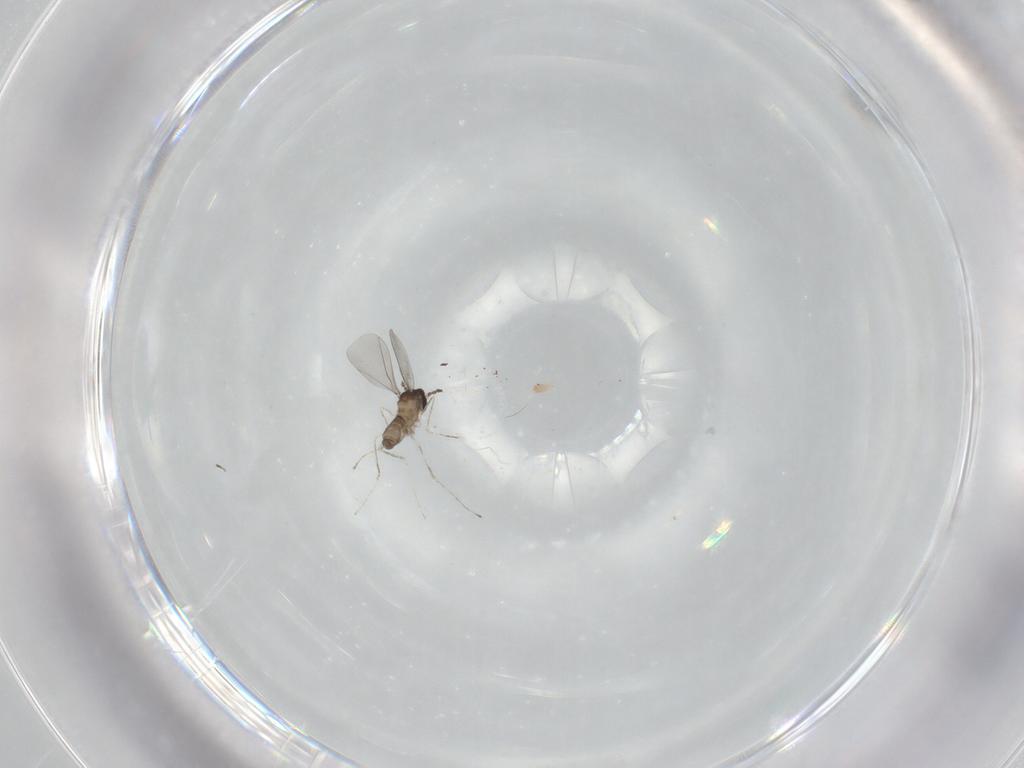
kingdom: Animalia
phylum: Arthropoda
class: Insecta
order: Diptera
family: Cecidomyiidae
